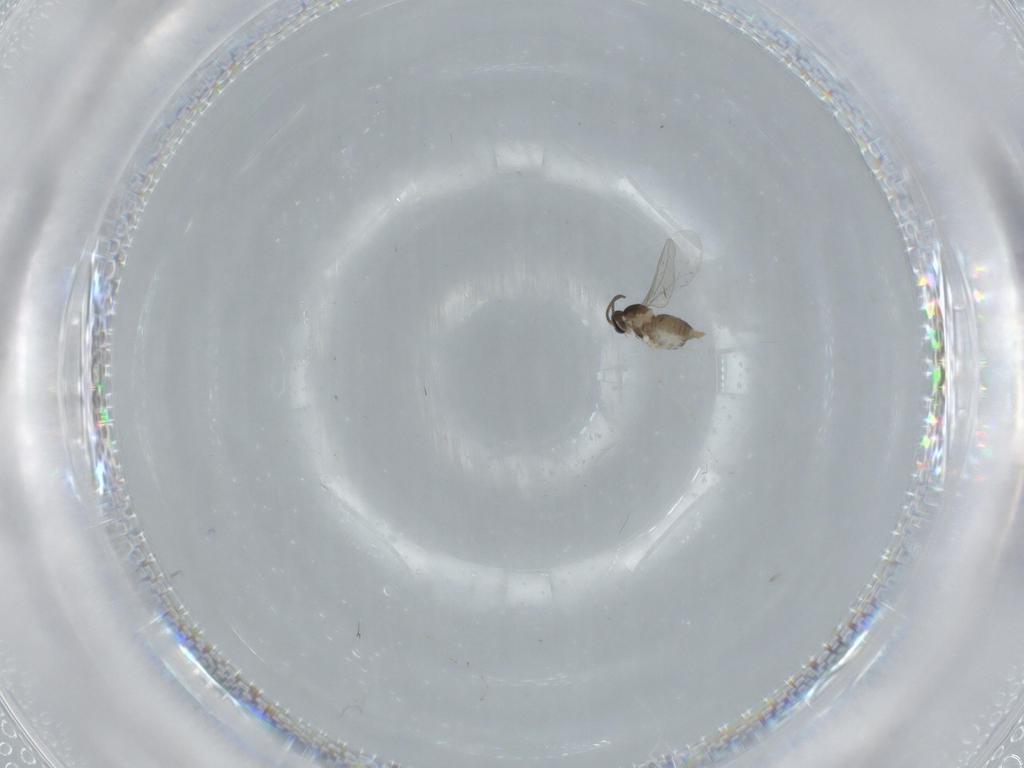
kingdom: Animalia
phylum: Arthropoda
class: Insecta
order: Diptera
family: Cecidomyiidae
